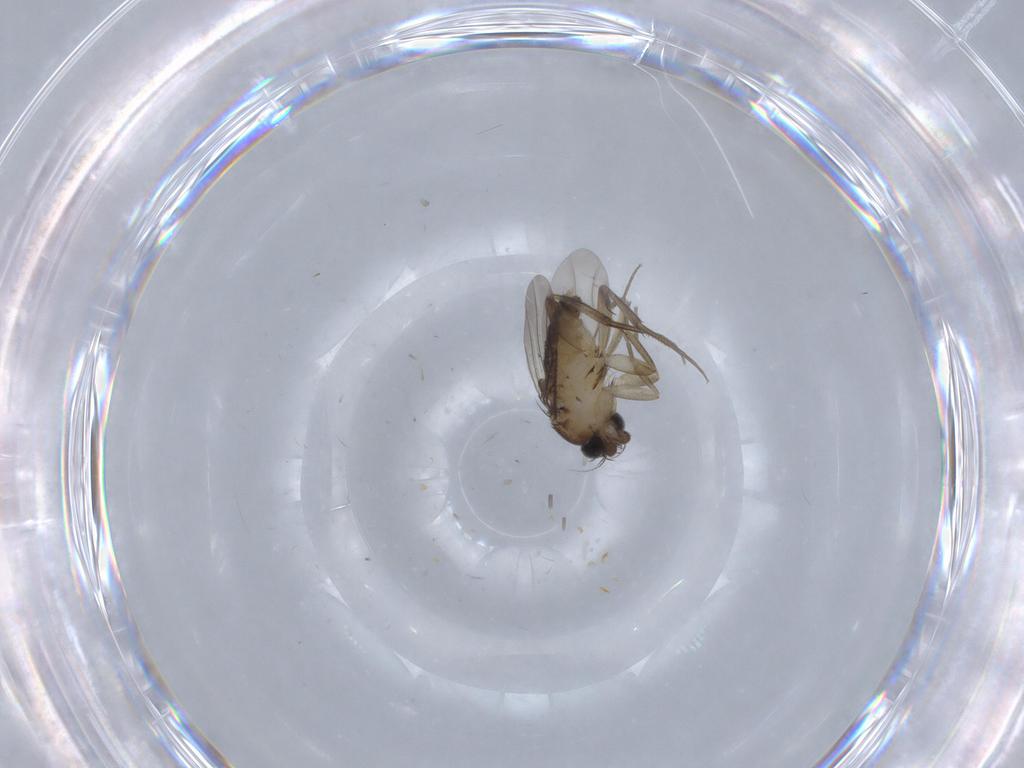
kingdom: Animalia
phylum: Arthropoda
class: Insecta
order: Diptera
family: Phoridae
